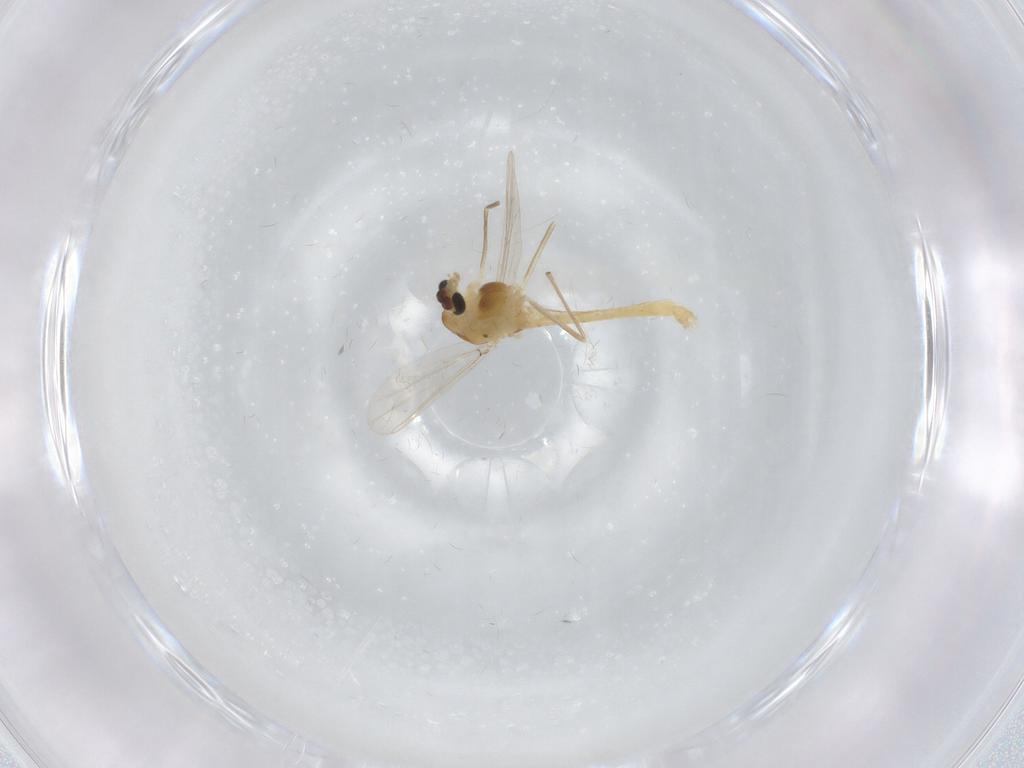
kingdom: Animalia
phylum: Arthropoda
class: Insecta
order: Diptera
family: Chironomidae
